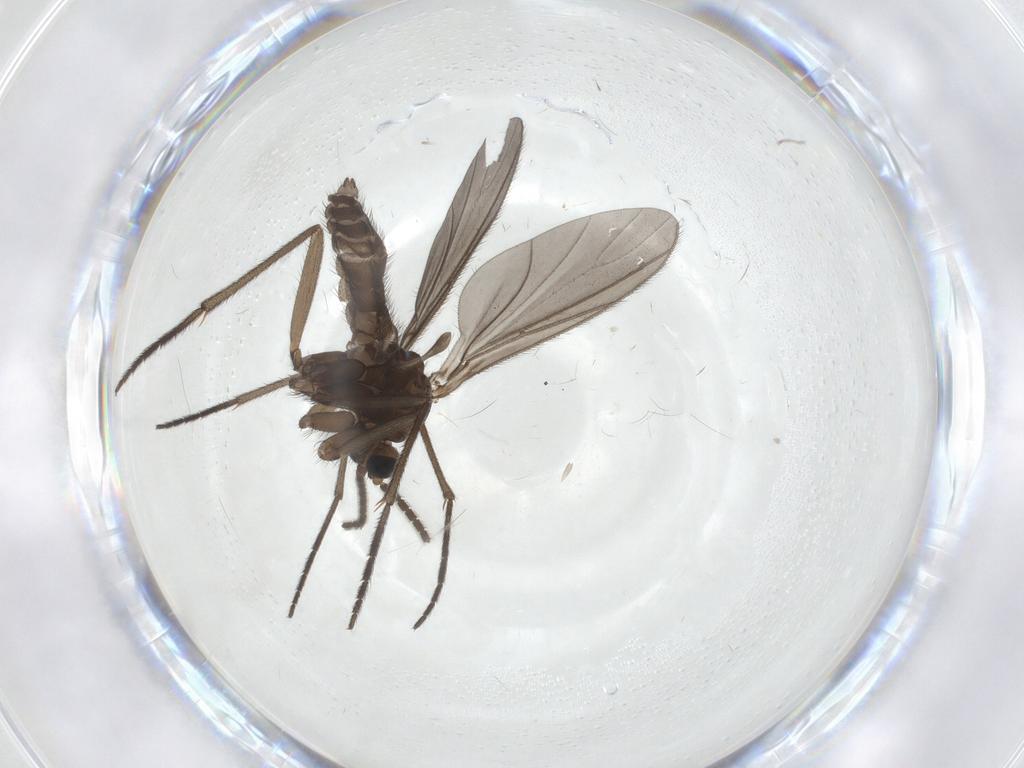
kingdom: Animalia
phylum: Arthropoda
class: Insecta
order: Diptera
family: Sciaridae
